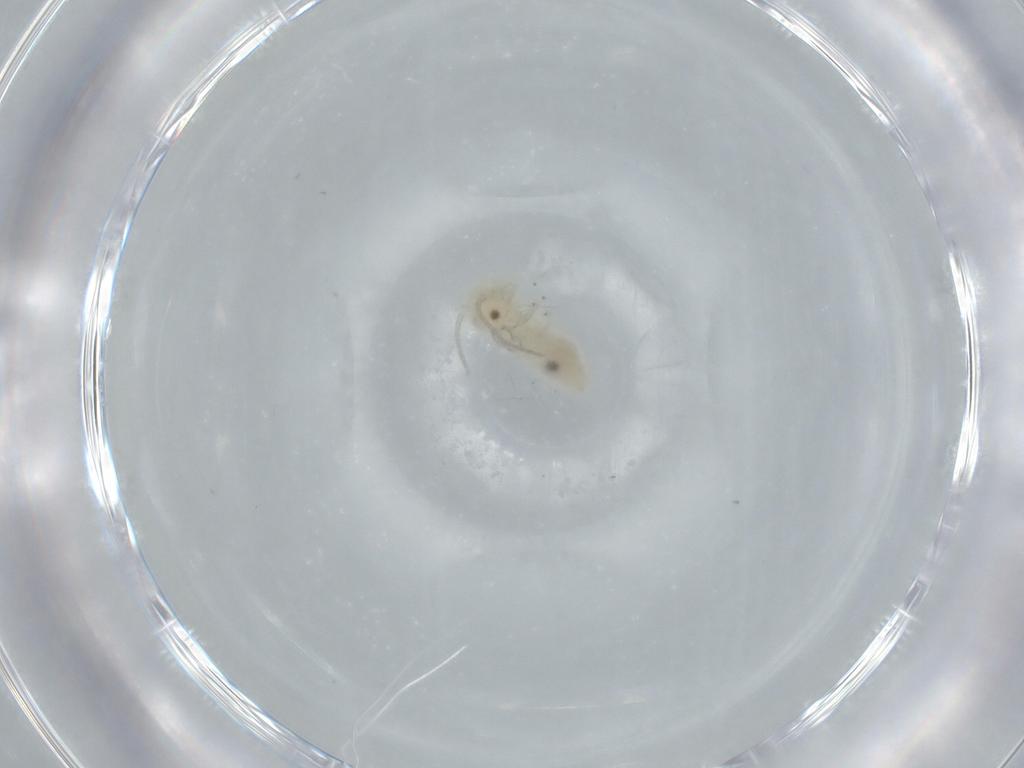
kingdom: Animalia
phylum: Arthropoda
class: Insecta
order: Psocodea
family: Caeciliusidae
